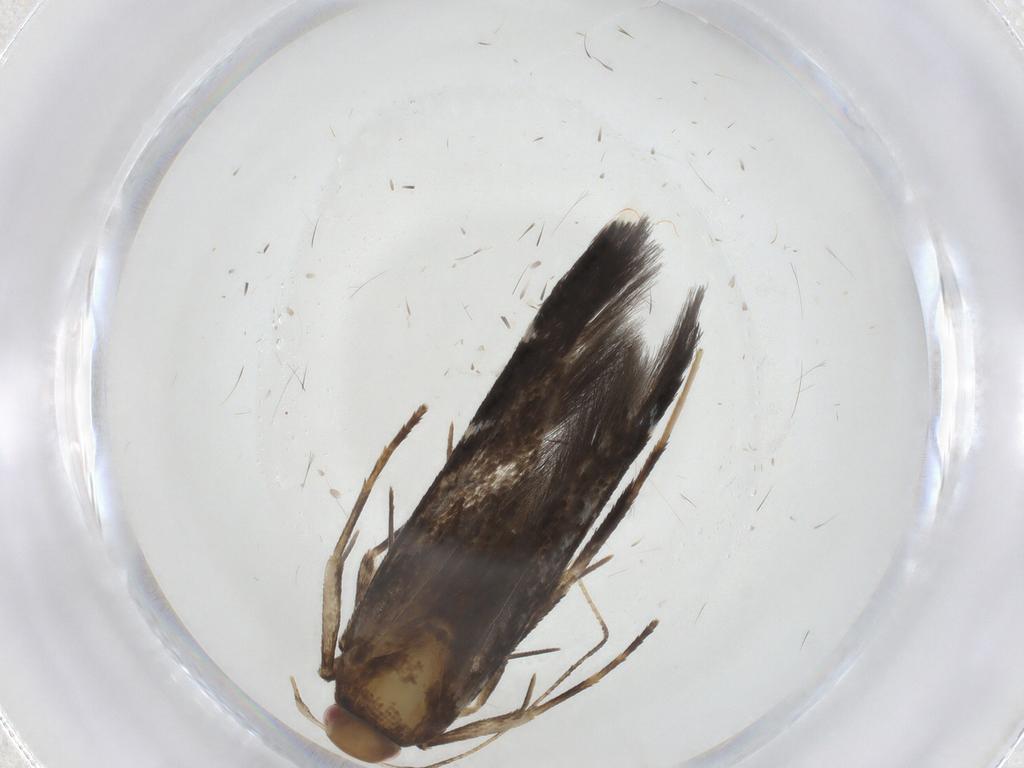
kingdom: Animalia
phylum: Arthropoda
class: Insecta
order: Lepidoptera
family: Cosmopterigidae
